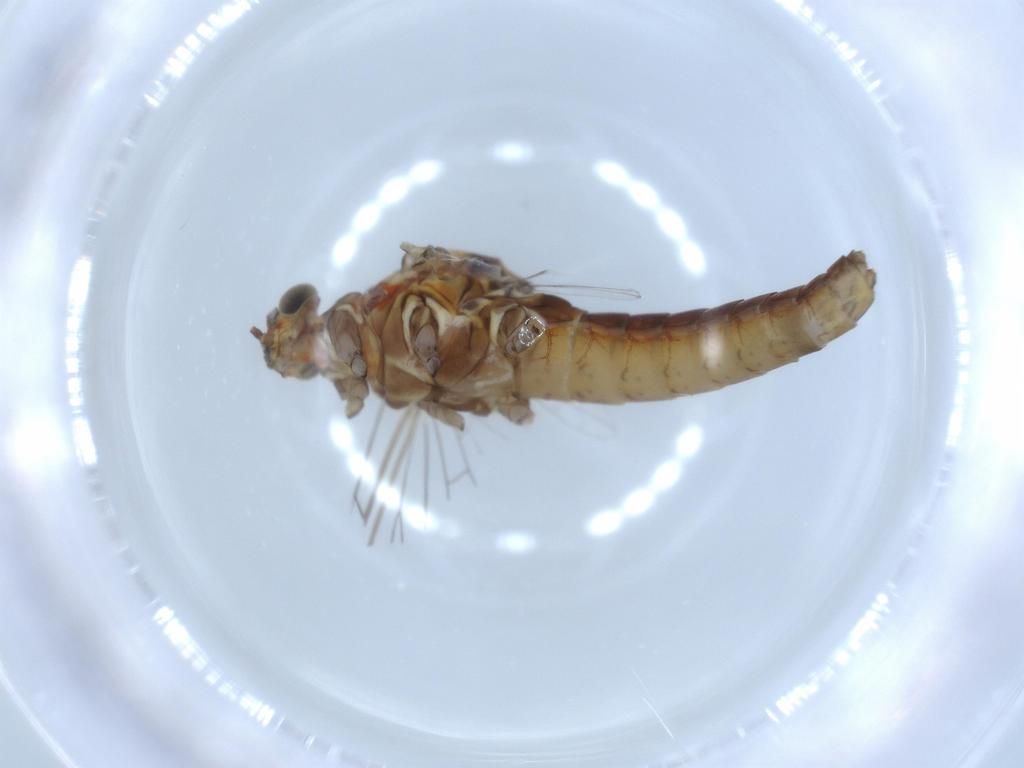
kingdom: Animalia
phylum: Arthropoda
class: Insecta
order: Ephemeroptera
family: Baetidae
